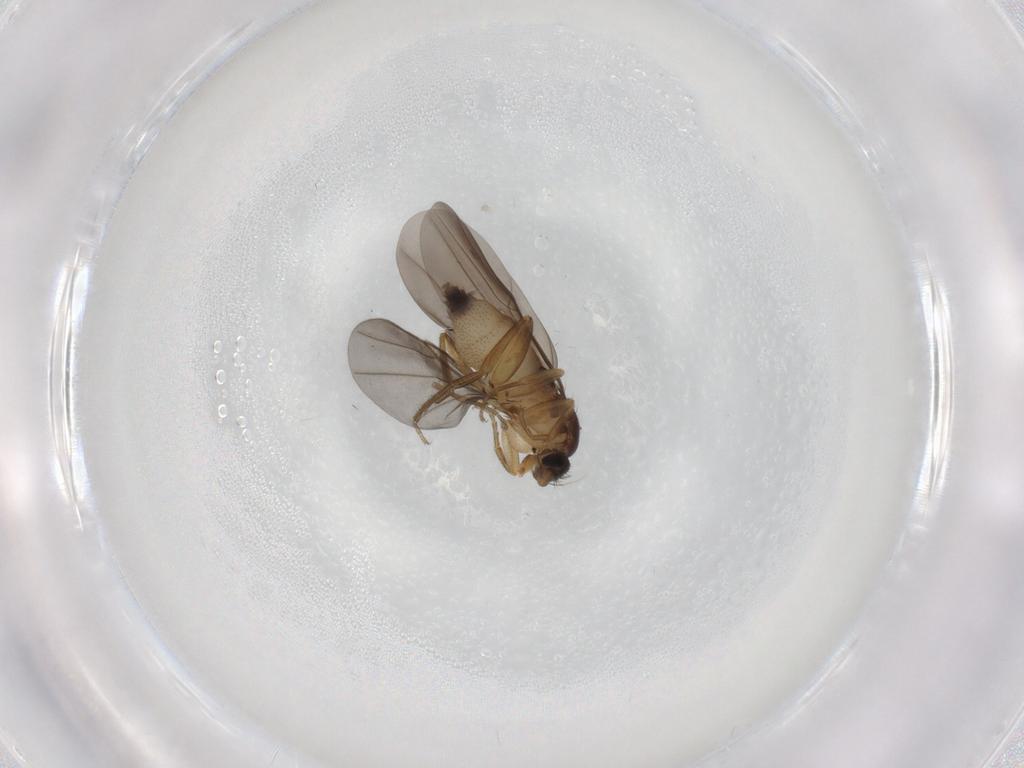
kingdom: Animalia
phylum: Arthropoda
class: Insecta
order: Diptera
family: Phoridae
